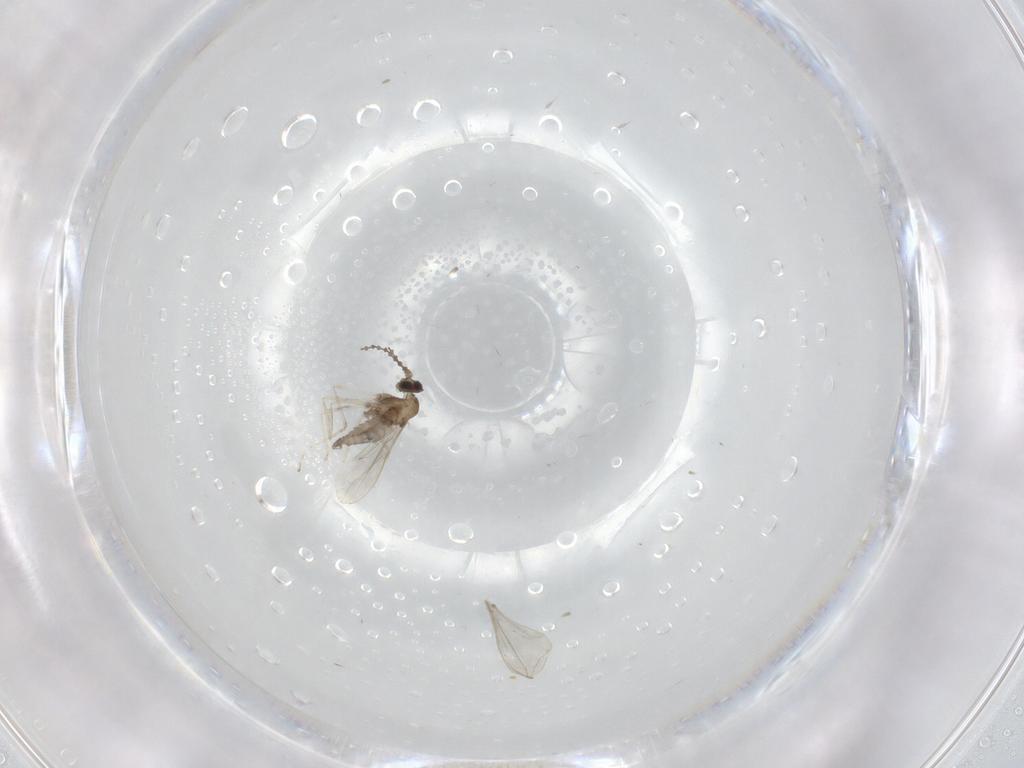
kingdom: Animalia
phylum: Arthropoda
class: Insecta
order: Diptera
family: Cecidomyiidae
